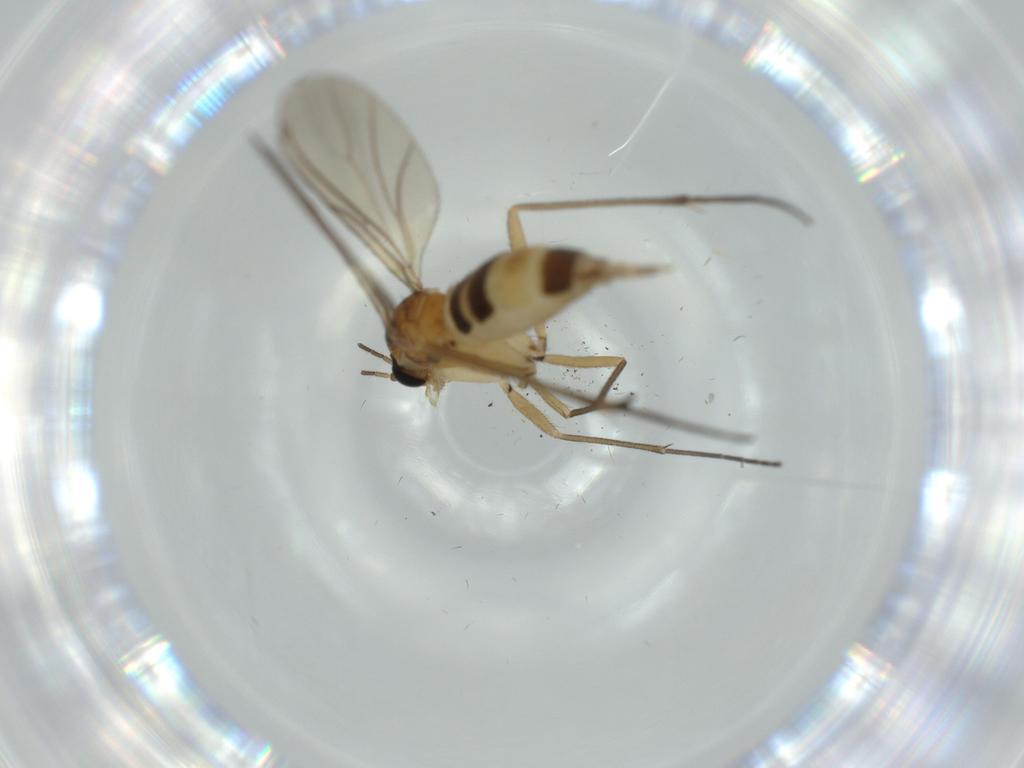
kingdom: Animalia
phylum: Arthropoda
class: Insecta
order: Diptera
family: Sciaridae
